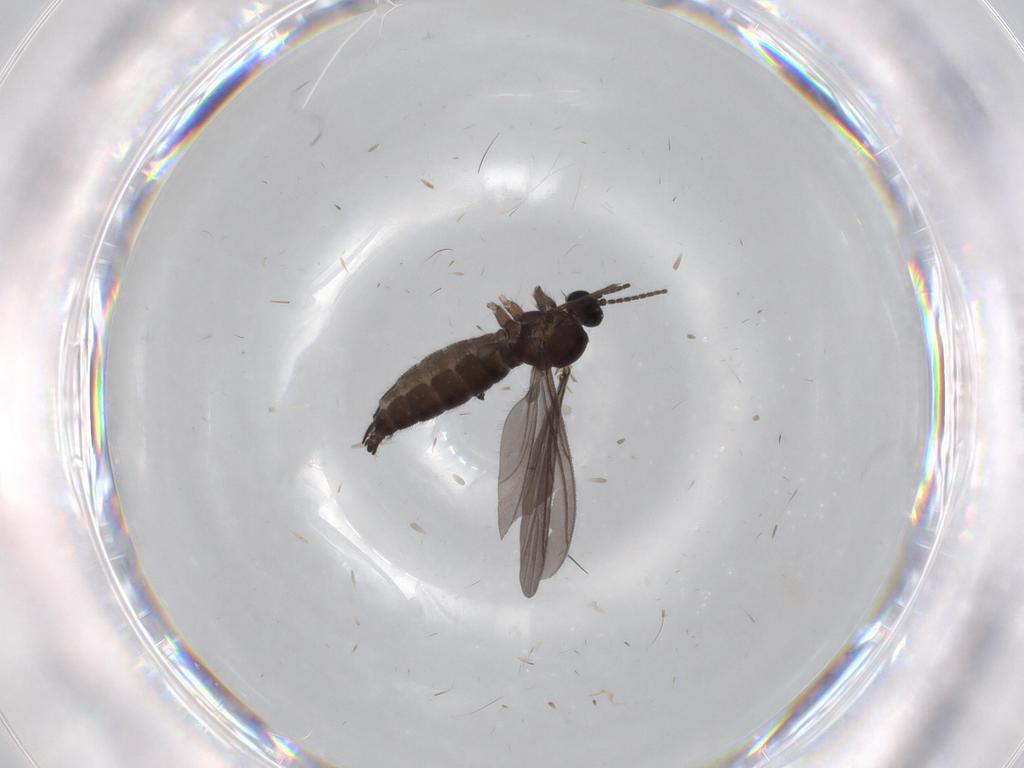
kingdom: Animalia
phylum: Arthropoda
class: Insecta
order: Diptera
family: Sciaridae
